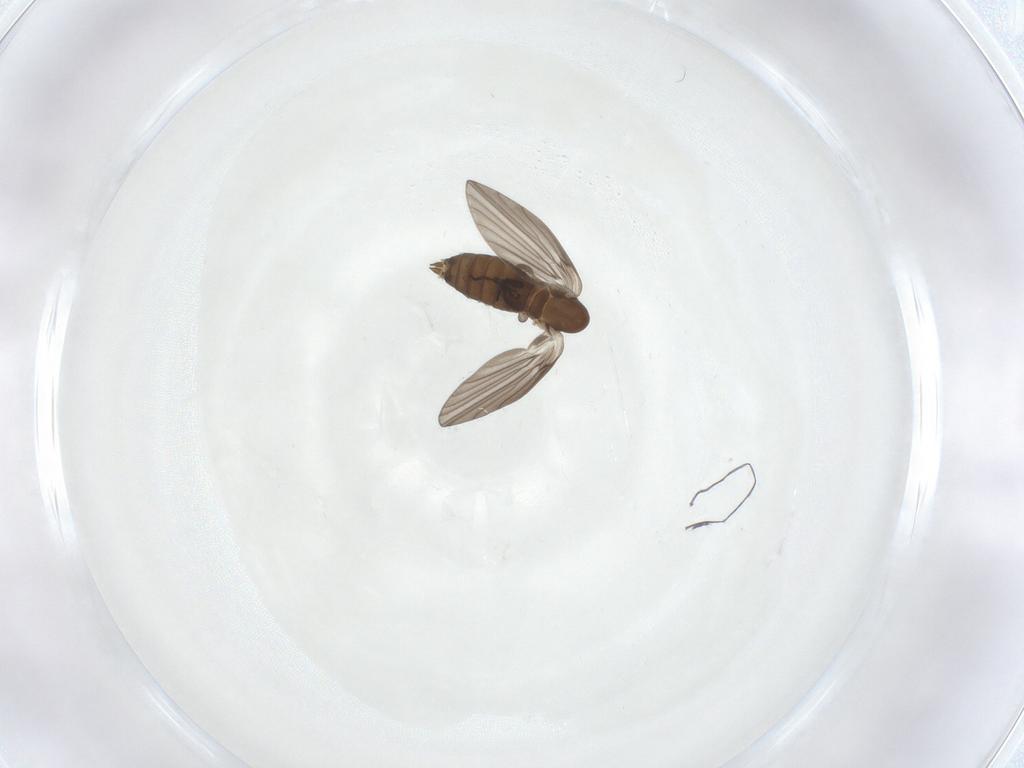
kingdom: Animalia
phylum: Arthropoda
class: Insecta
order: Diptera
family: Psychodidae
